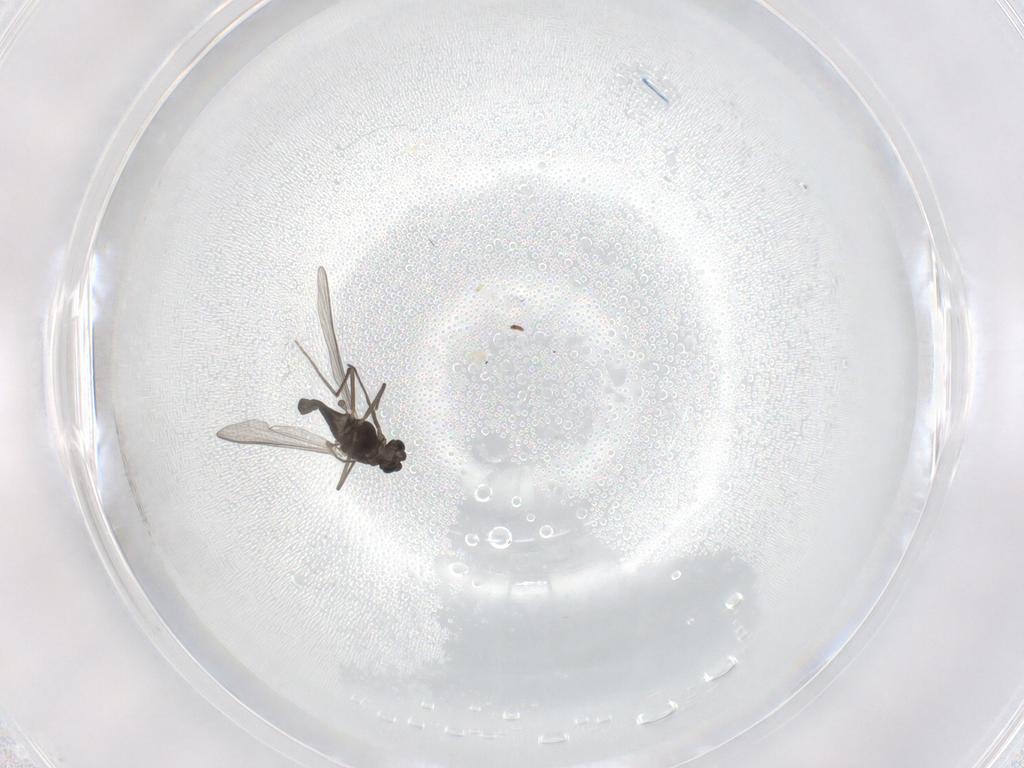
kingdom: Animalia
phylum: Arthropoda
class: Insecta
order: Diptera
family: Chironomidae
